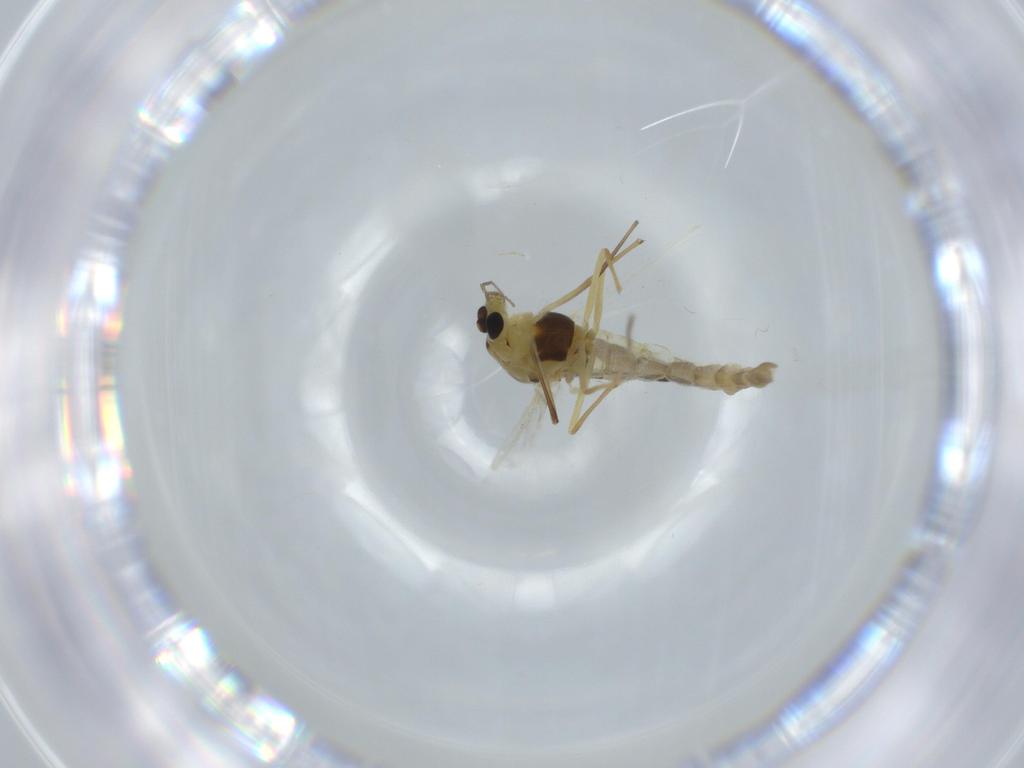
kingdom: Animalia
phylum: Arthropoda
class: Insecta
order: Diptera
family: Chironomidae
